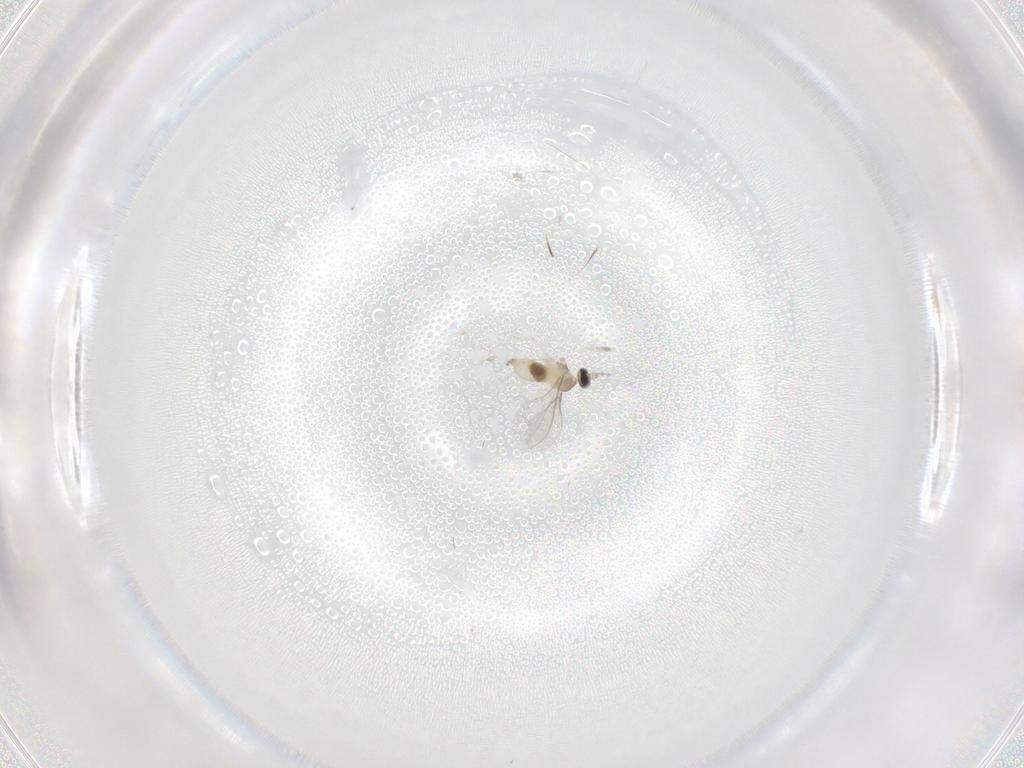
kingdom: Animalia
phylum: Arthropoda
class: Insecta
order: Diptera
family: Cecidomyiidae
